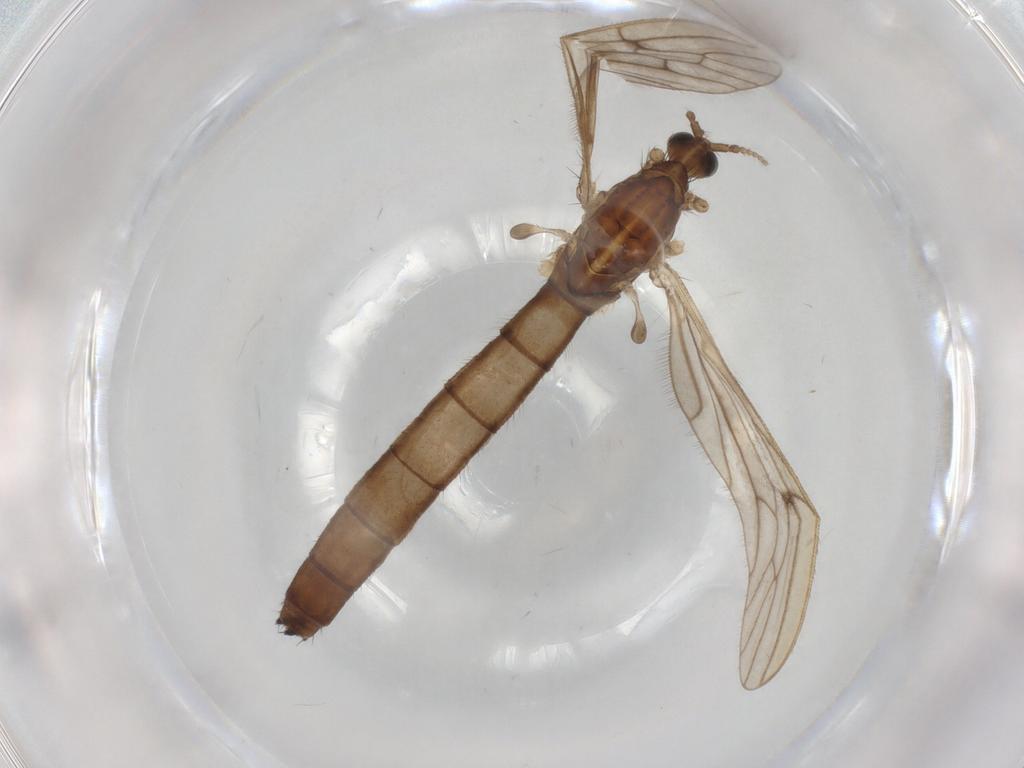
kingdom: Animalia
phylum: Arthropoda
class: Insecta
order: Diptera
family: Limoniidae
